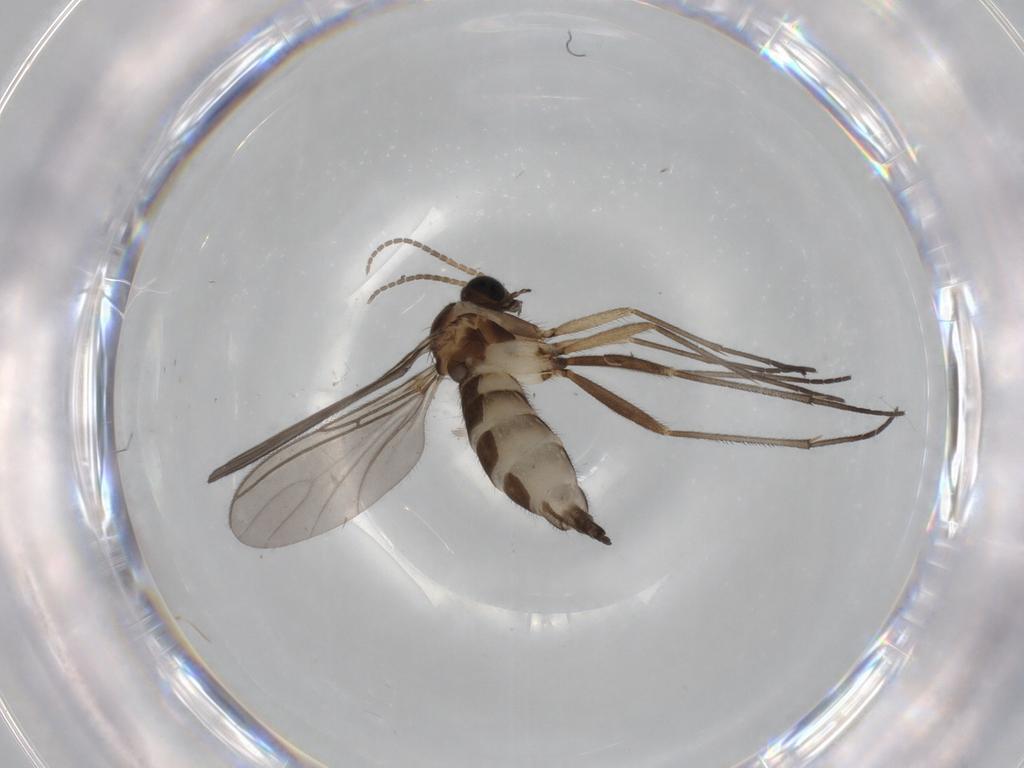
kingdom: Animalia
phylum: Arthropoda
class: Insecta
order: Diptera
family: Sciaridae
